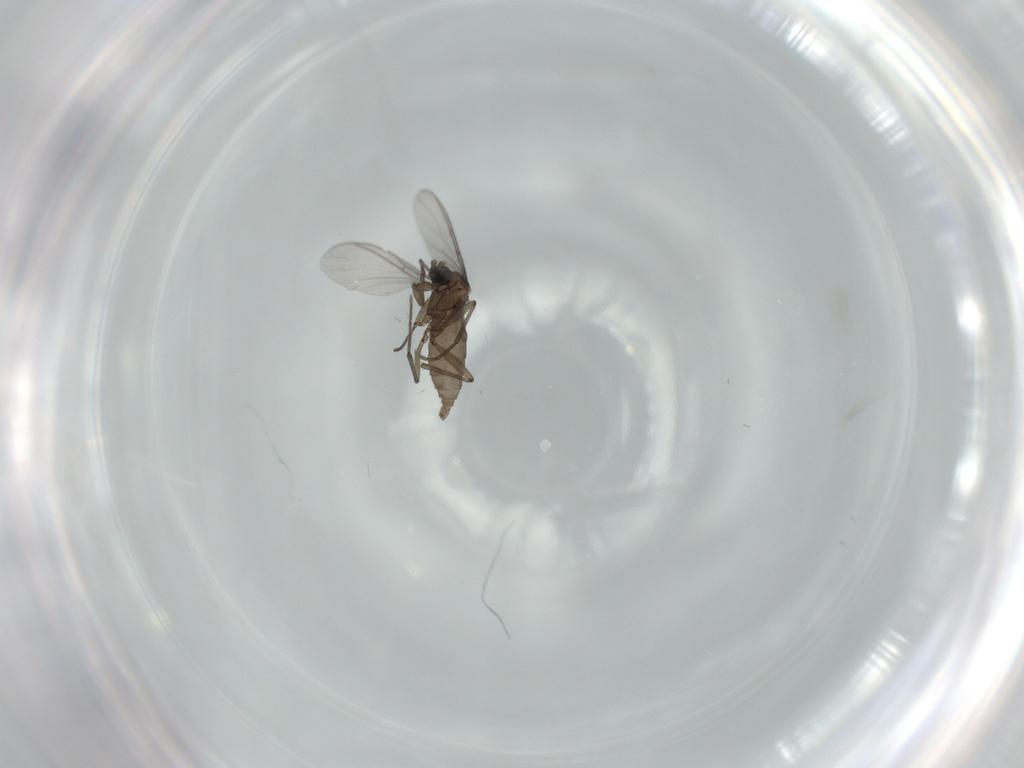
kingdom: Animalia
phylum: Arthropoda
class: Insecta
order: Diptera
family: Sciaridae
